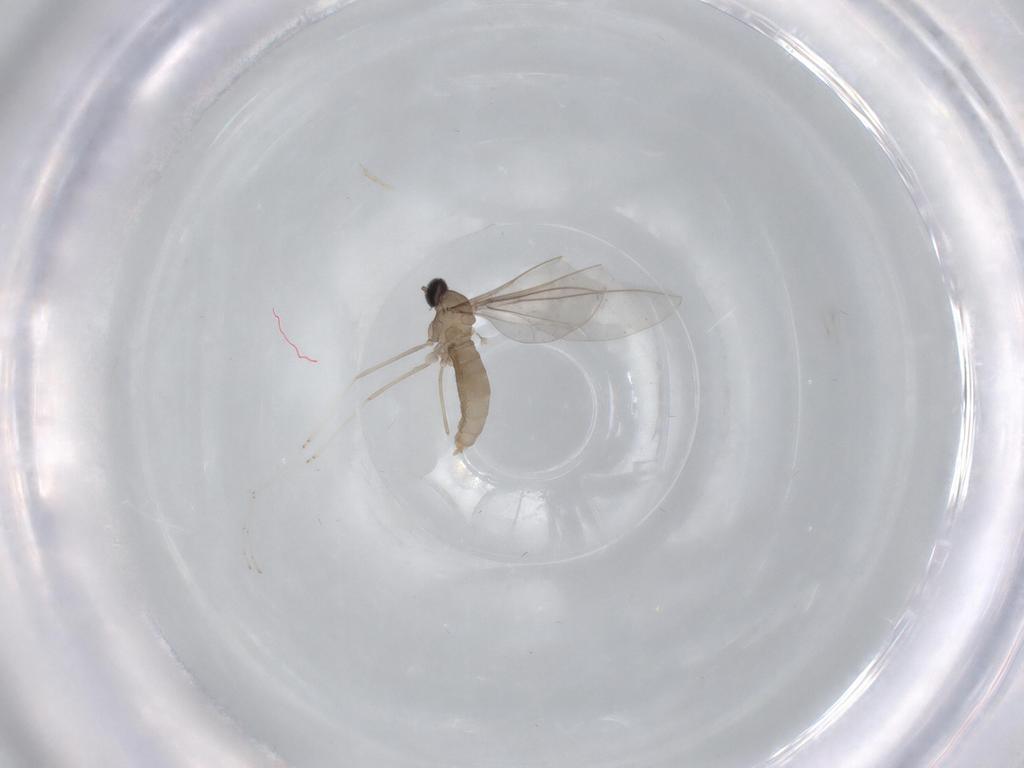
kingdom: Animalia
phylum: Arthropoda
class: Insecta
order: Diptera
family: Cecidomyiidae
